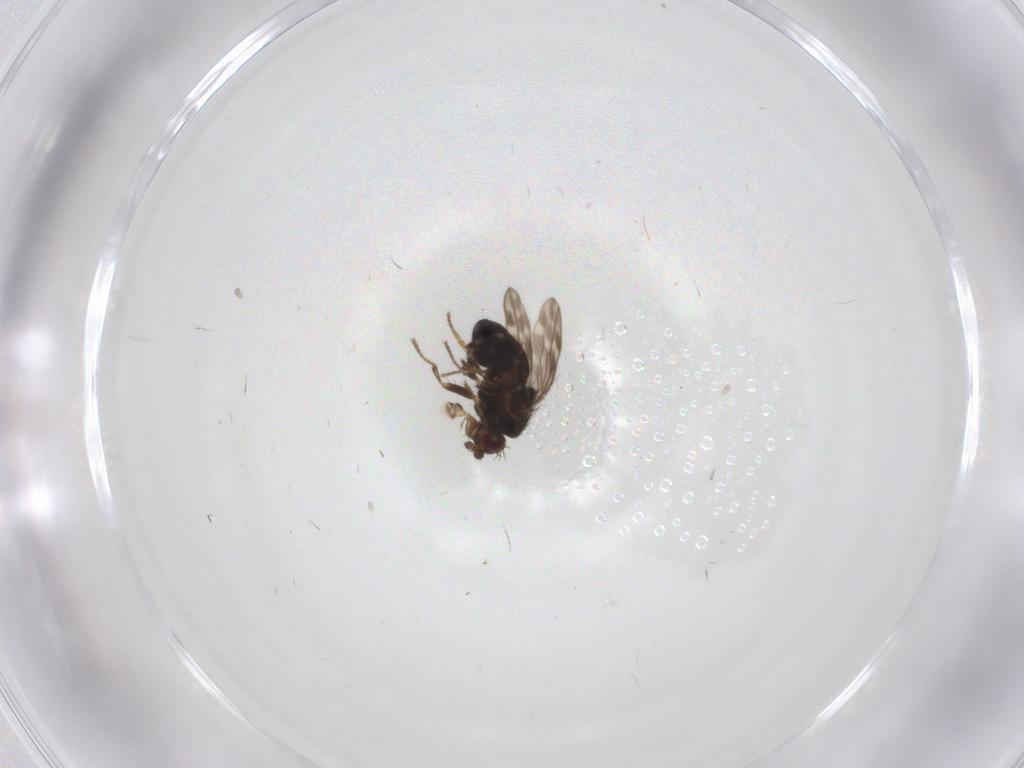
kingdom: Animalia
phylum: Arthropoda
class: Insecta
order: Diptera
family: Sphaeroceridae
